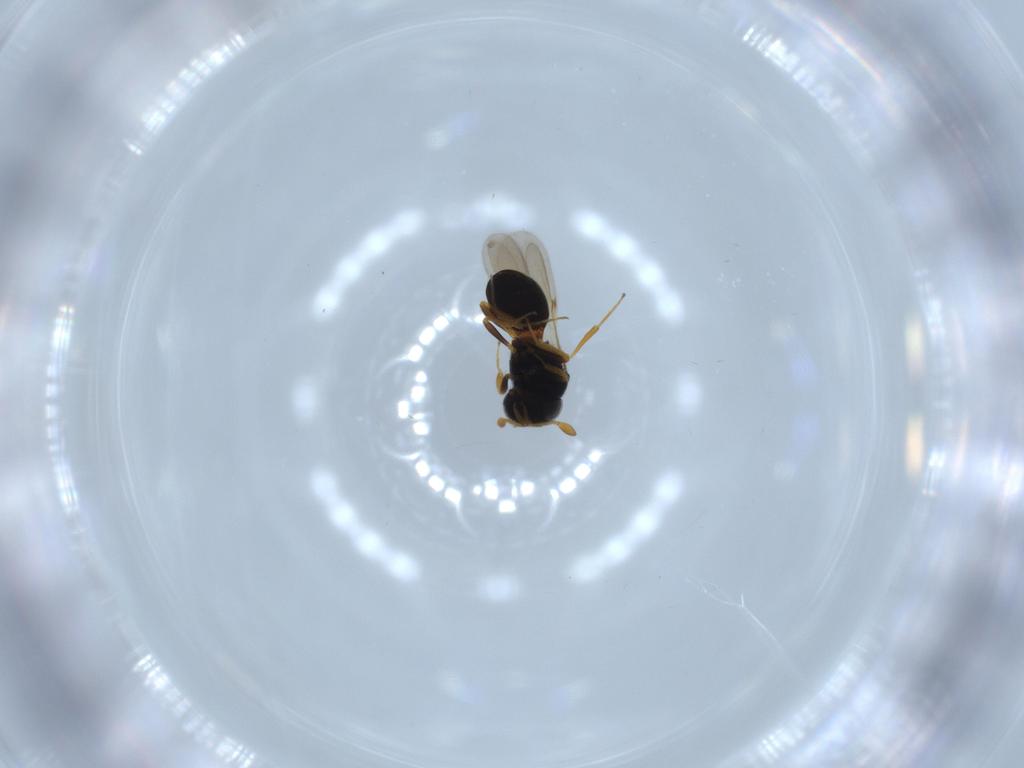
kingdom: Animalia
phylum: Arthropoda
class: Insecta
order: Hymenoptera
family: Scelionidae
